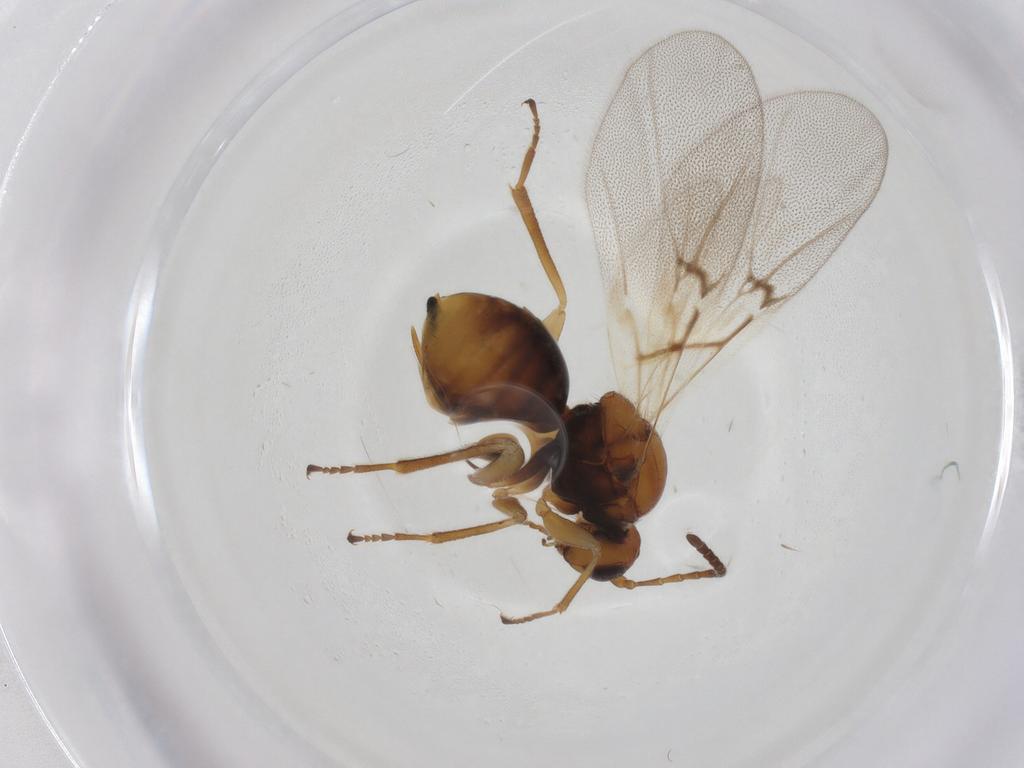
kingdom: Animalia
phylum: Arthropoda
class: Insecta
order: Hymenoptera
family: Cynipidae
